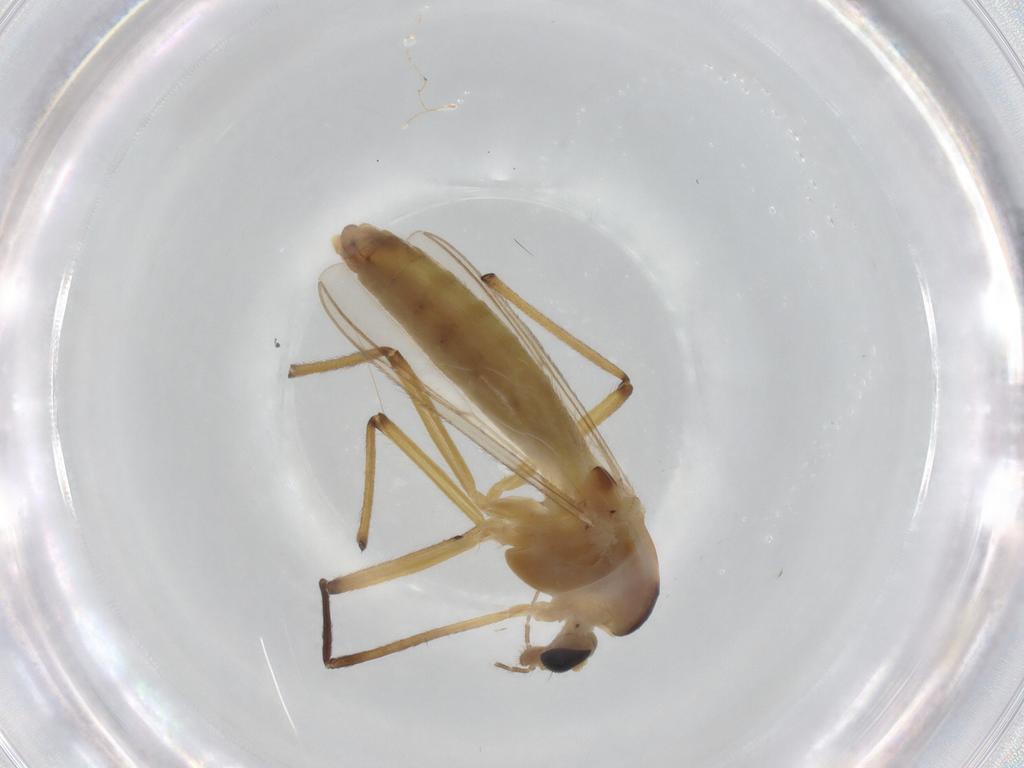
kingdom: Animalia
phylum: Arthropoda
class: Insecta
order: Diptera
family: Chironomidae
